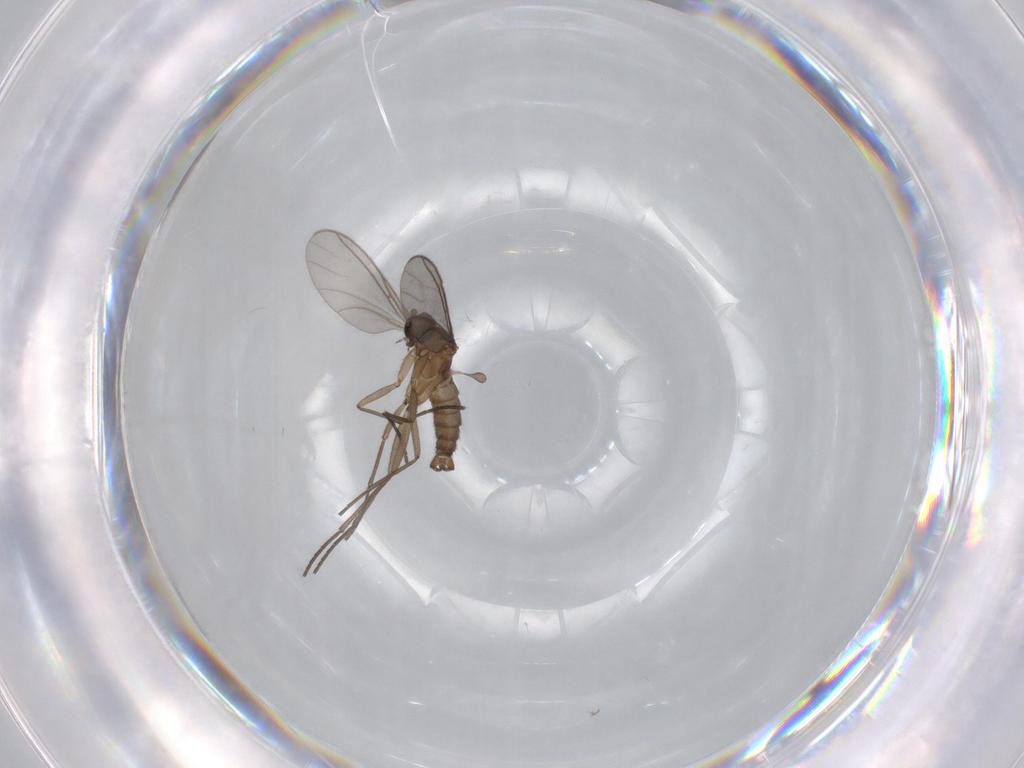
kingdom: Animalia
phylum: Arthropoda
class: Insecta
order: Diptera
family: Sciaridae
